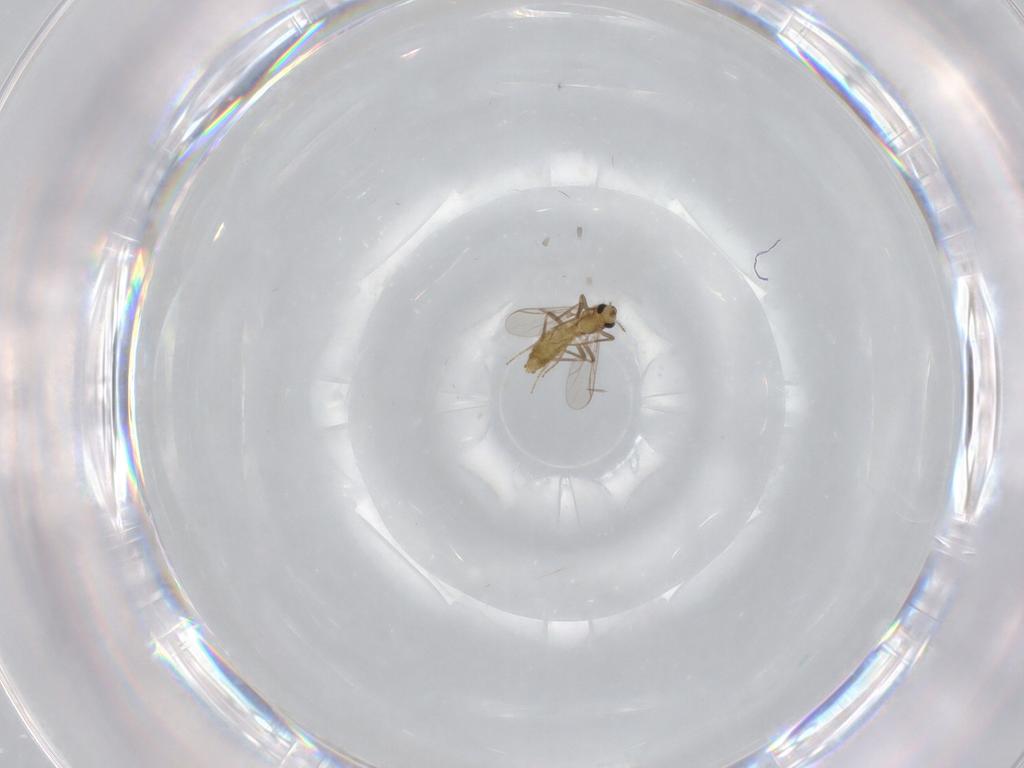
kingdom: Animalia
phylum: Arthropoda
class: Insecta
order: Diptera
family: Chironomidae
